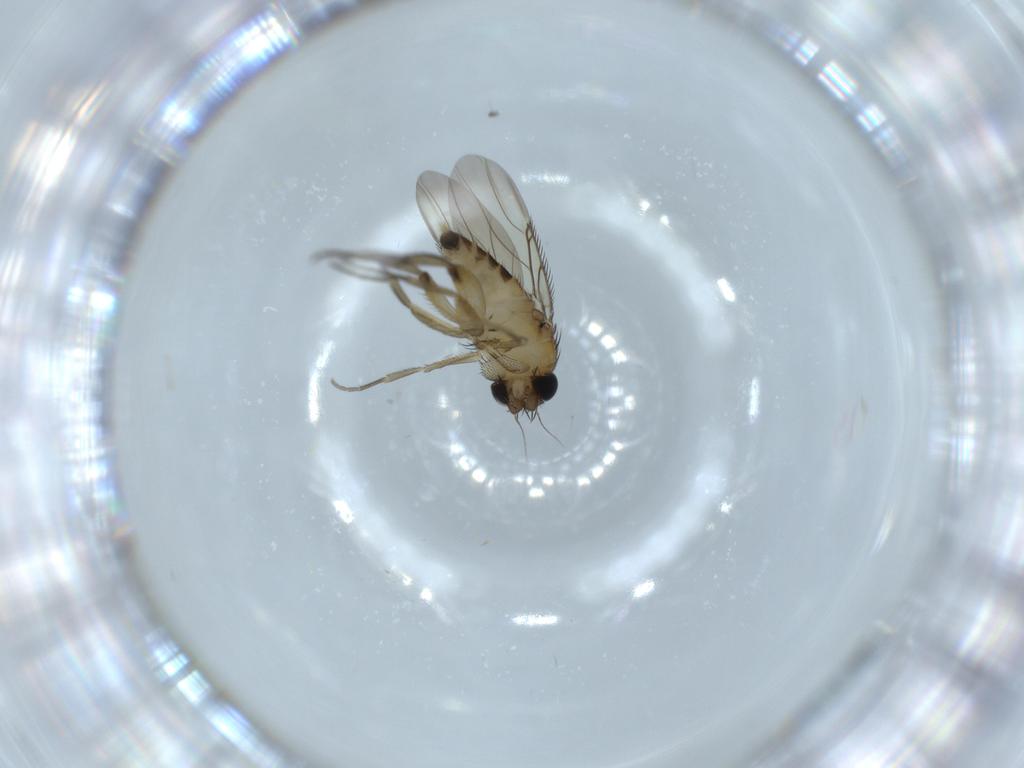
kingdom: Animalia
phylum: Arthropoda
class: Insecta
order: Diptera
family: Phoridae
